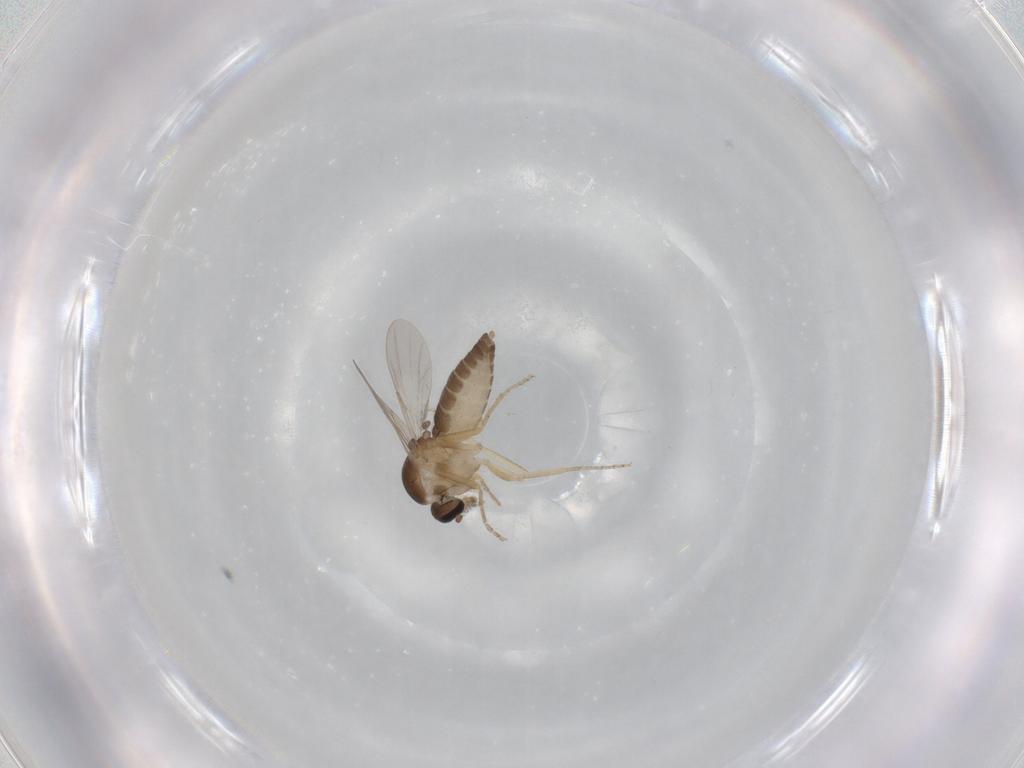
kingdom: Animalia
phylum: Arthropoda
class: Insecta
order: Diptera
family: Ceratopogonidae
